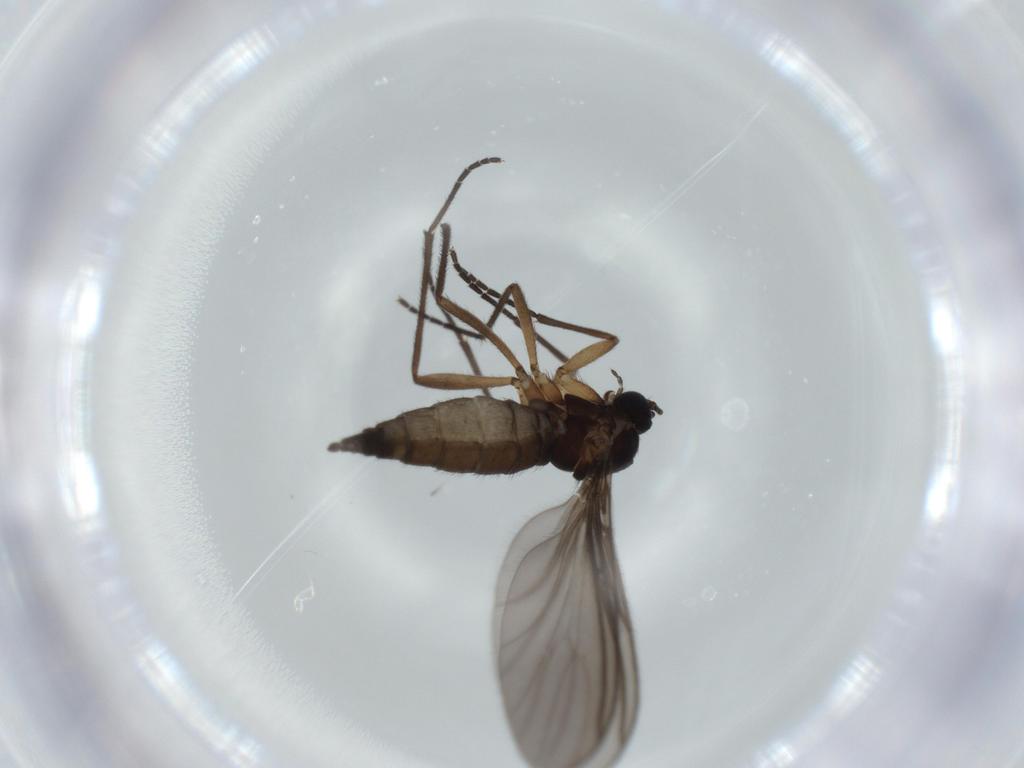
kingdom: Animalia
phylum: Arthropoda
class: Insecta
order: Diptera
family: Sciaridae
